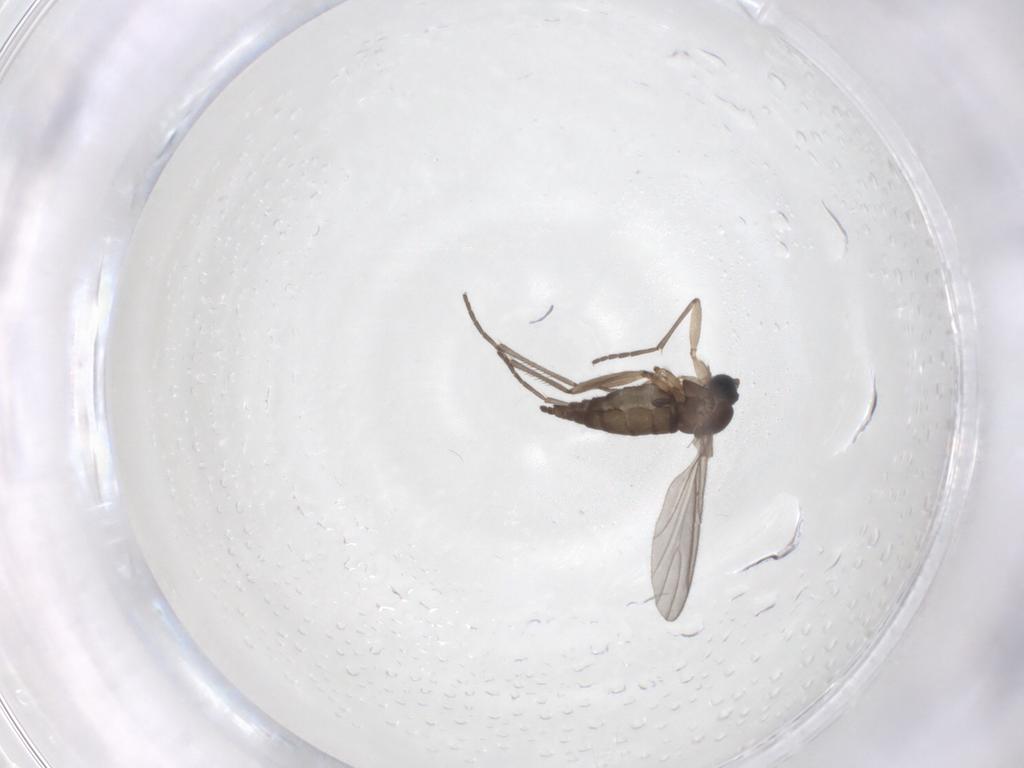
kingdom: Animalia
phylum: Arthropoda
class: Insecta
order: Diptera
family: Sciaridae
